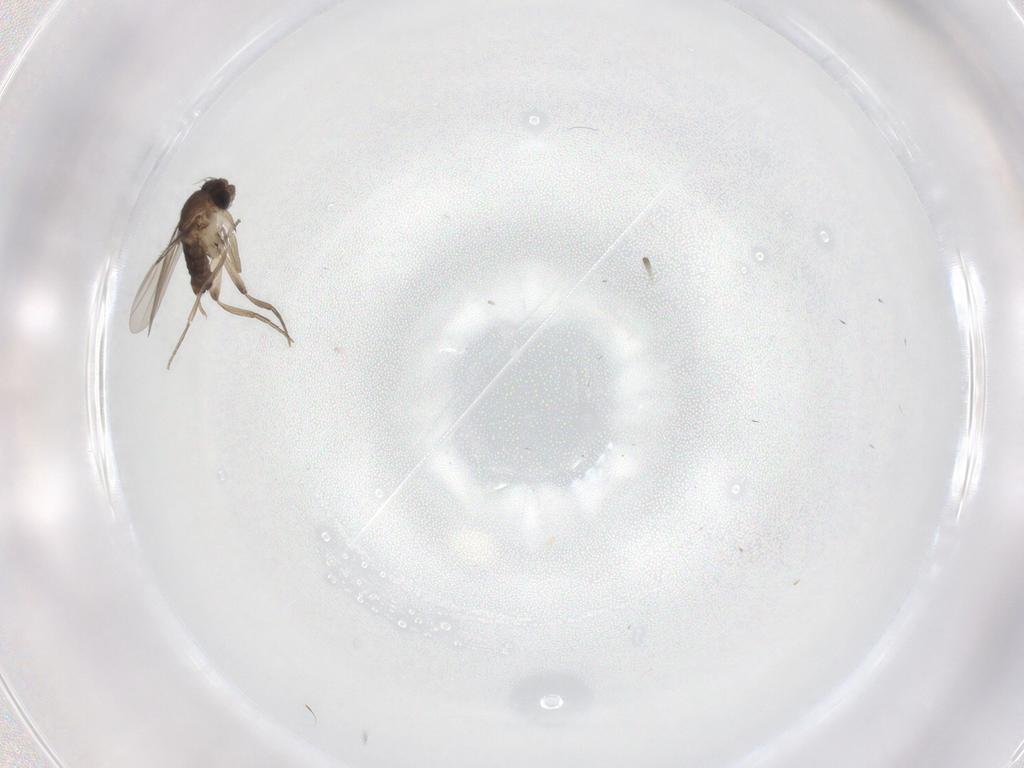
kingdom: Animalia
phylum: Arthropoda
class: Insecta
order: Diptera
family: Phoridae
